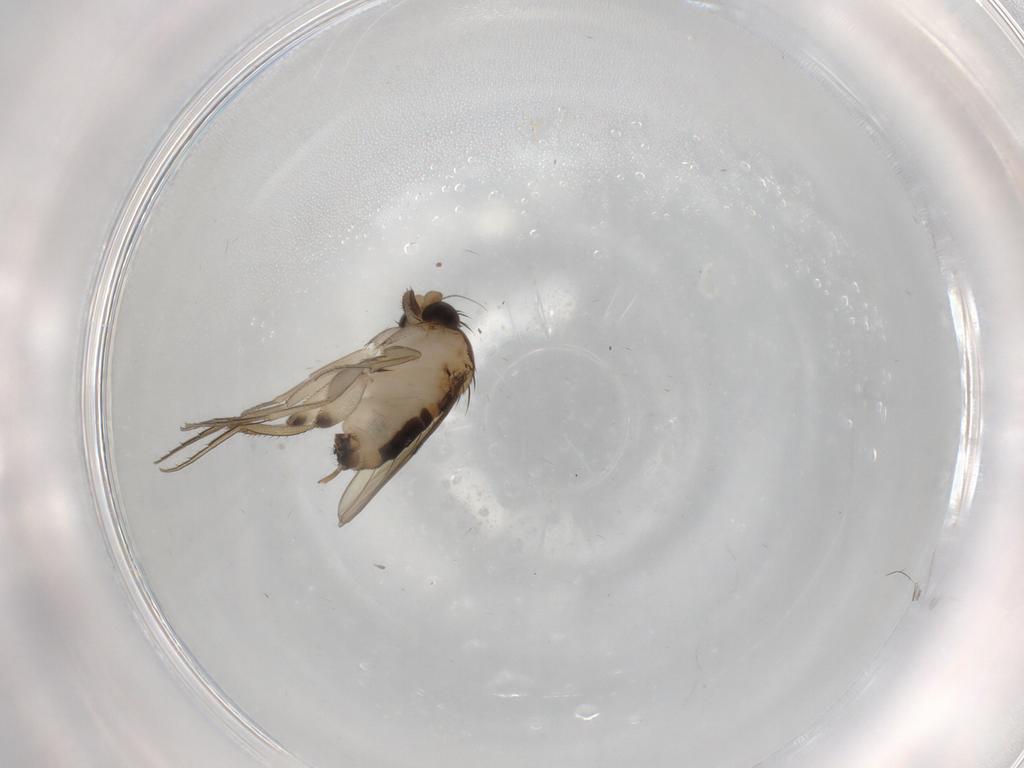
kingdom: Animalia
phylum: Arthropoda
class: Insecta
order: Diptera
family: Phoridae
